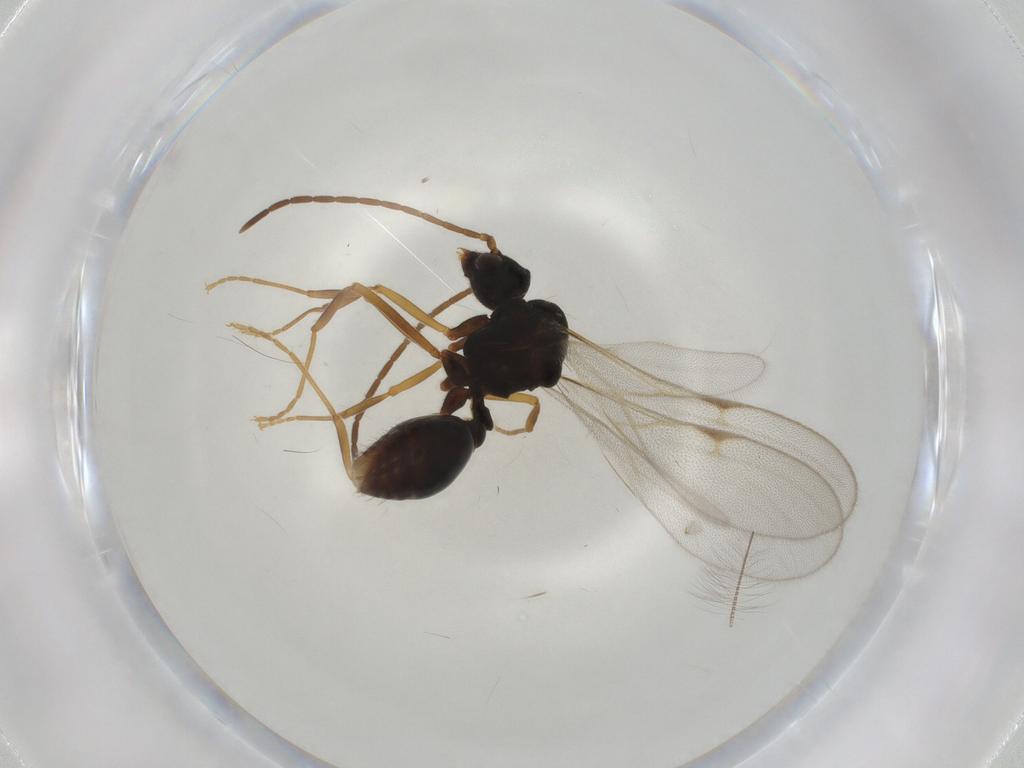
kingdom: Animalia
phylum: Arthropoda
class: Insecta
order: Hymenoptera
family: Formicidae
